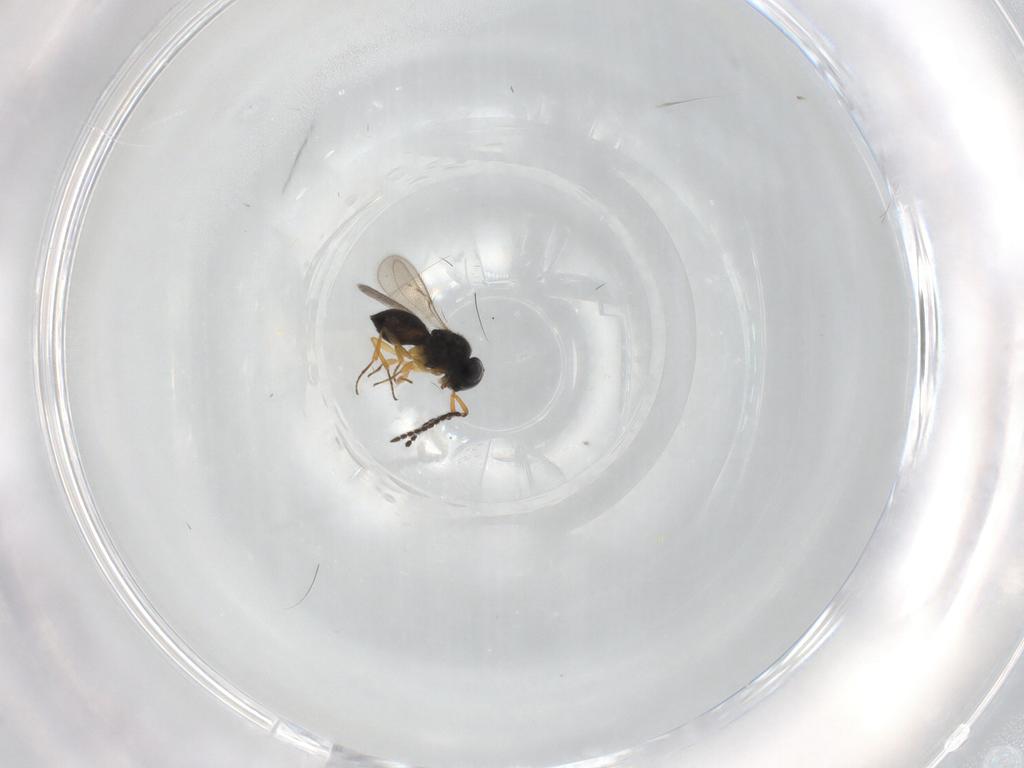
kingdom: Animalia
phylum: Arthropoda
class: Insecta
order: Hymenoptera
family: Scelionidae
